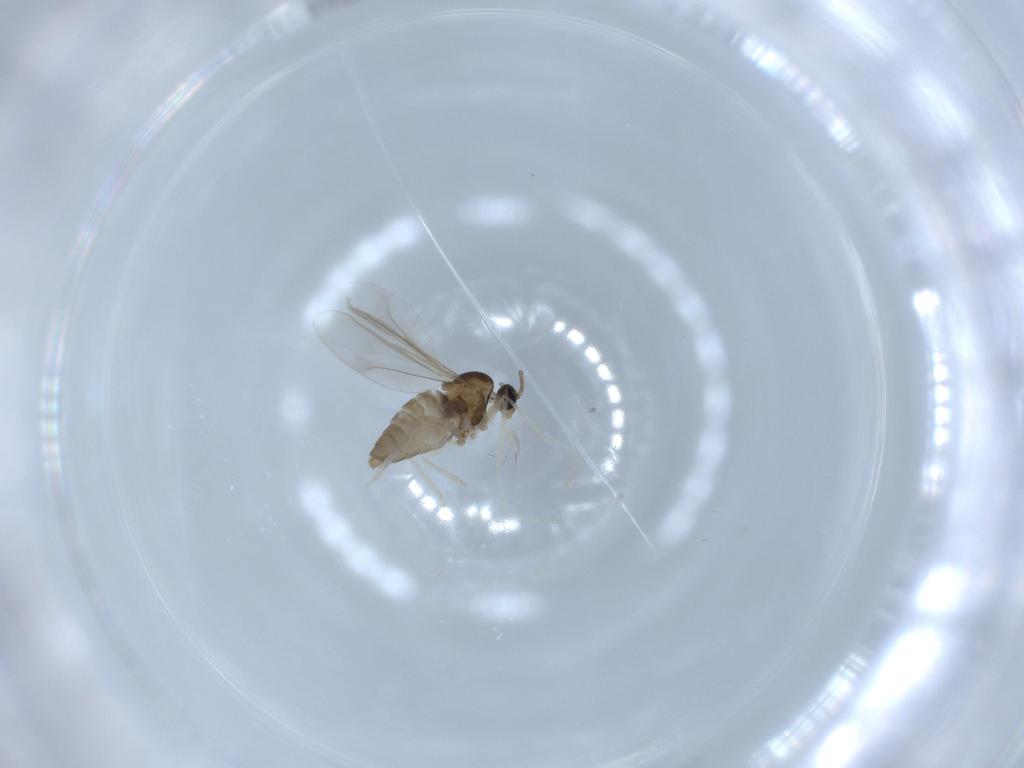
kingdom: Animalia
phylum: Arthropoda
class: Insecta
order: Diptera
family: Cecidomyiidae
